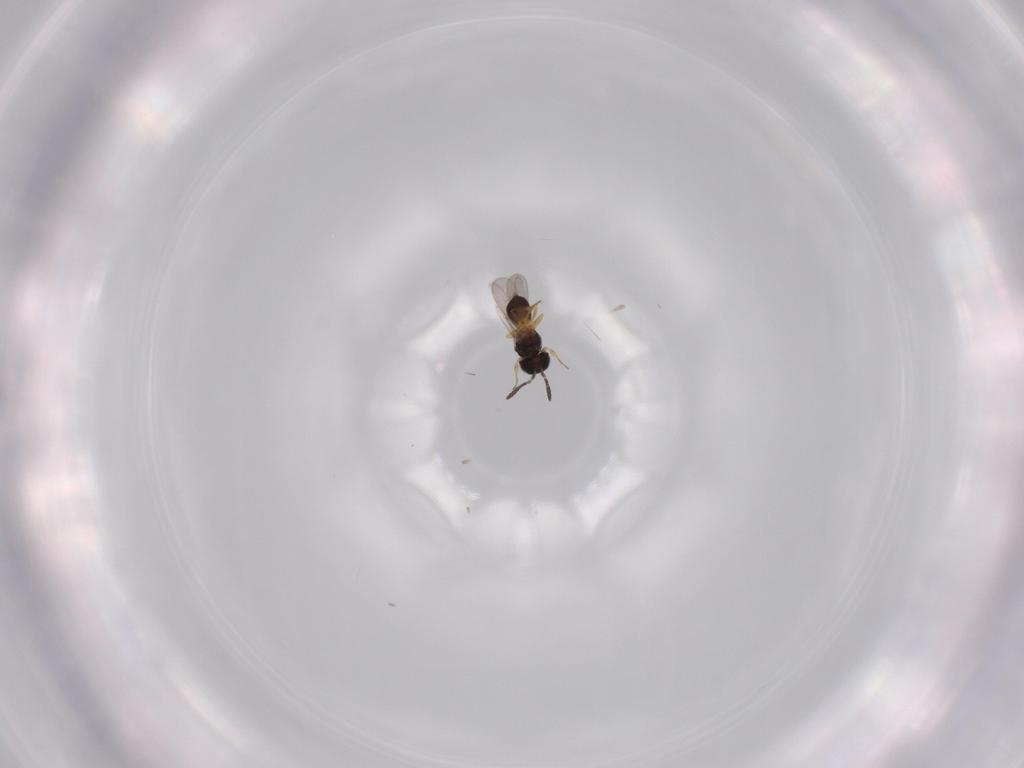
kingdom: Animalia
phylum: Arthropoda
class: Insecta
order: Hymenoptera
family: Scelionidae
